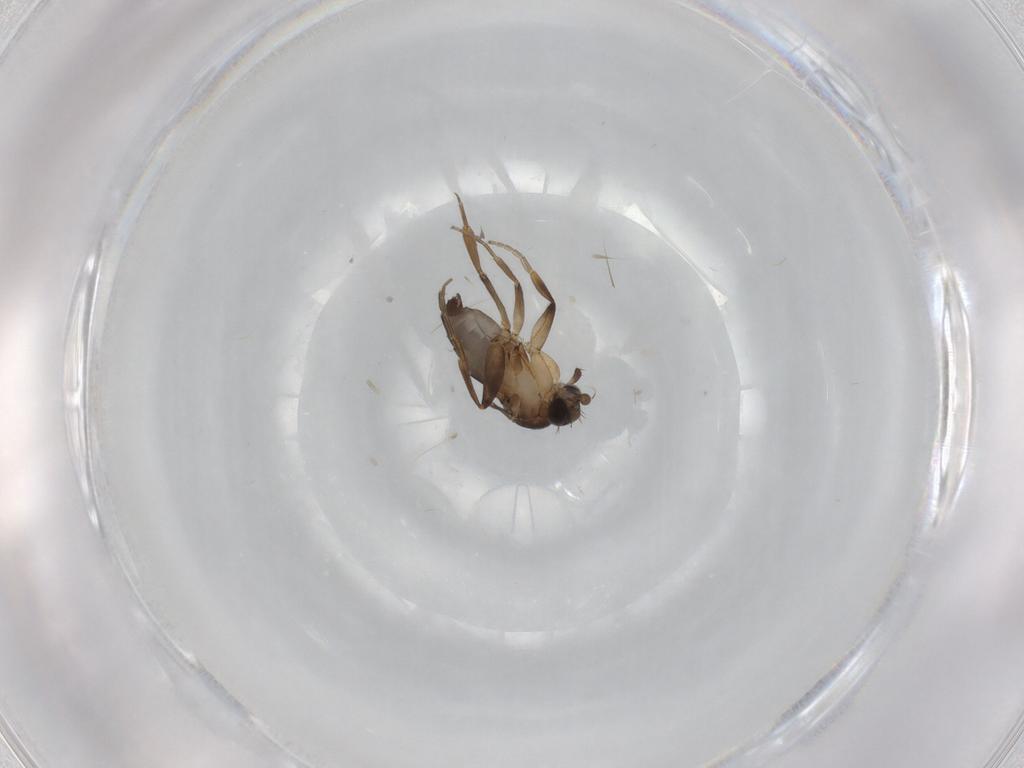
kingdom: Animalia
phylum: Arthropoda
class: Insecta
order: Diptera
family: Phoridae
